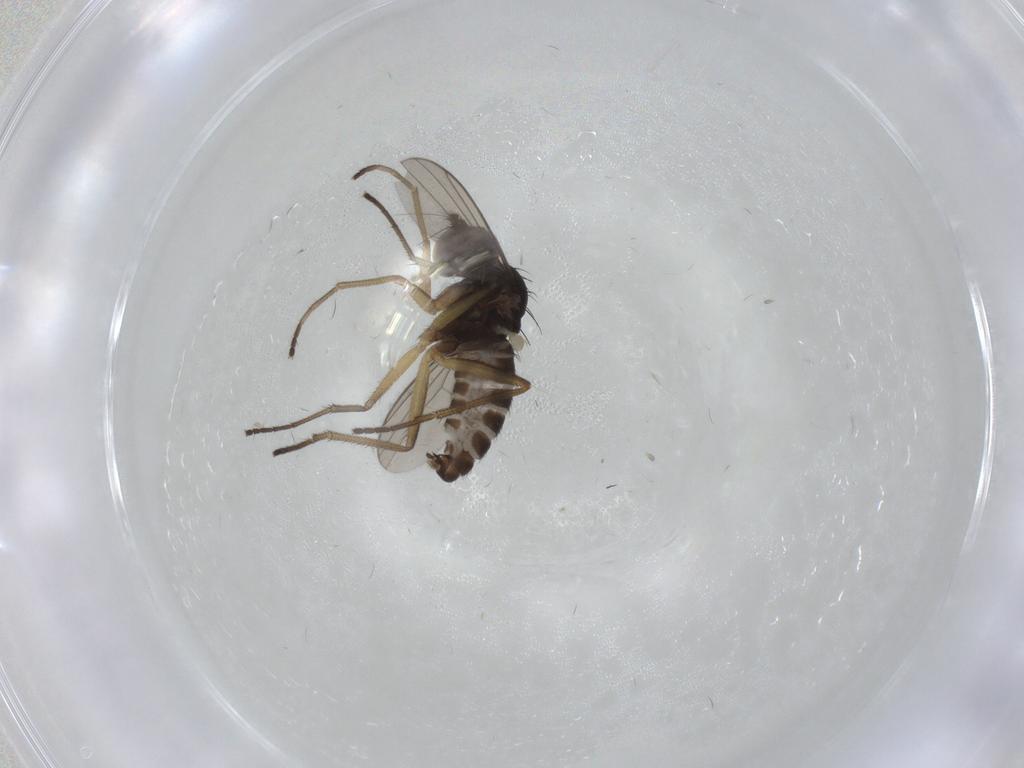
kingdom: Animalia
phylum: Arthropoda
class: Insecta
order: Diptera
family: Dolichopodidae
